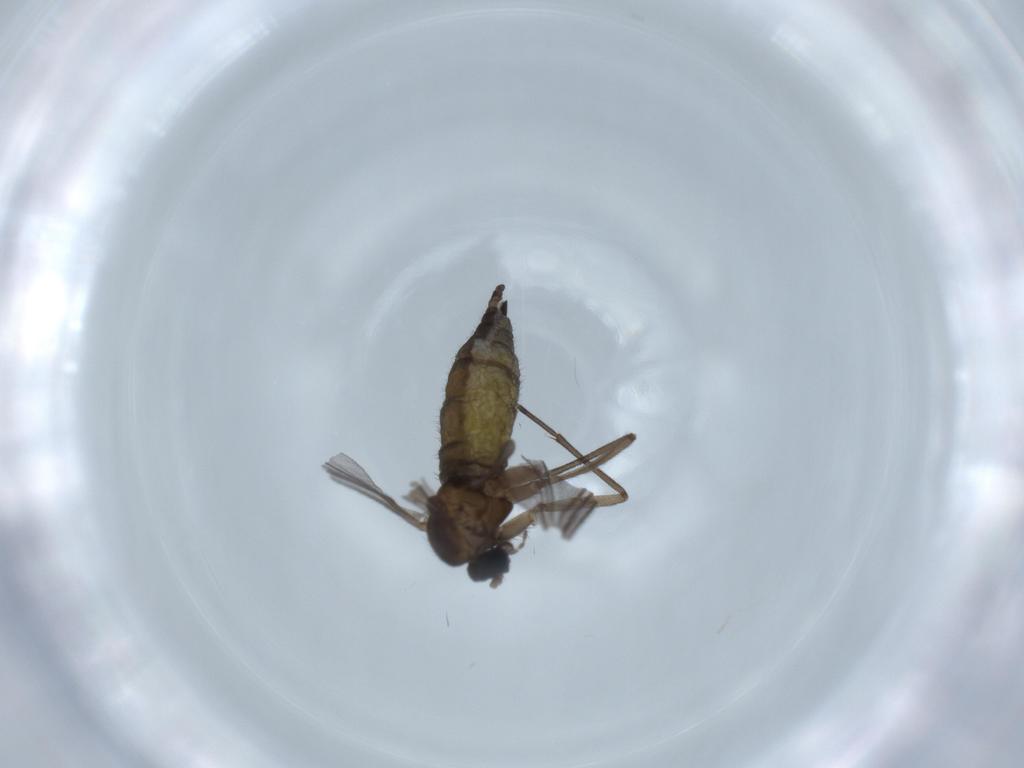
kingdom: Animalia
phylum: Arthropoda
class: Insecta
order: Diptera
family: Sciaridae
